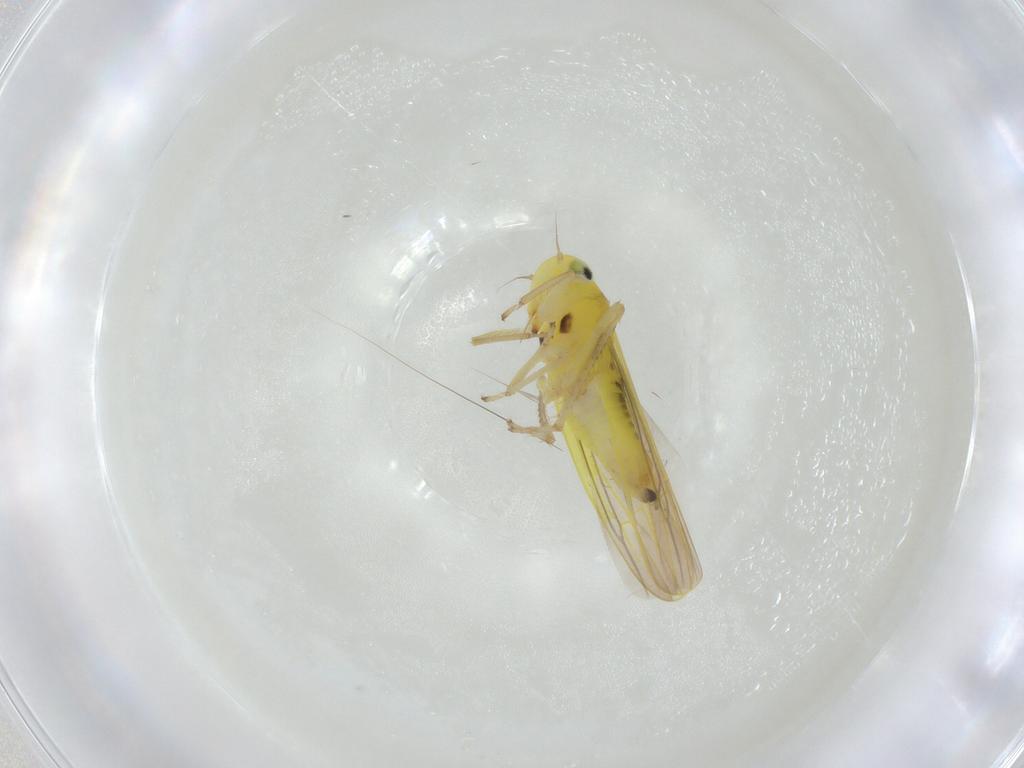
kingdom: Animalia
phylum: Arthropoda
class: Insecta
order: Hemiptera
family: Cicadellidae
